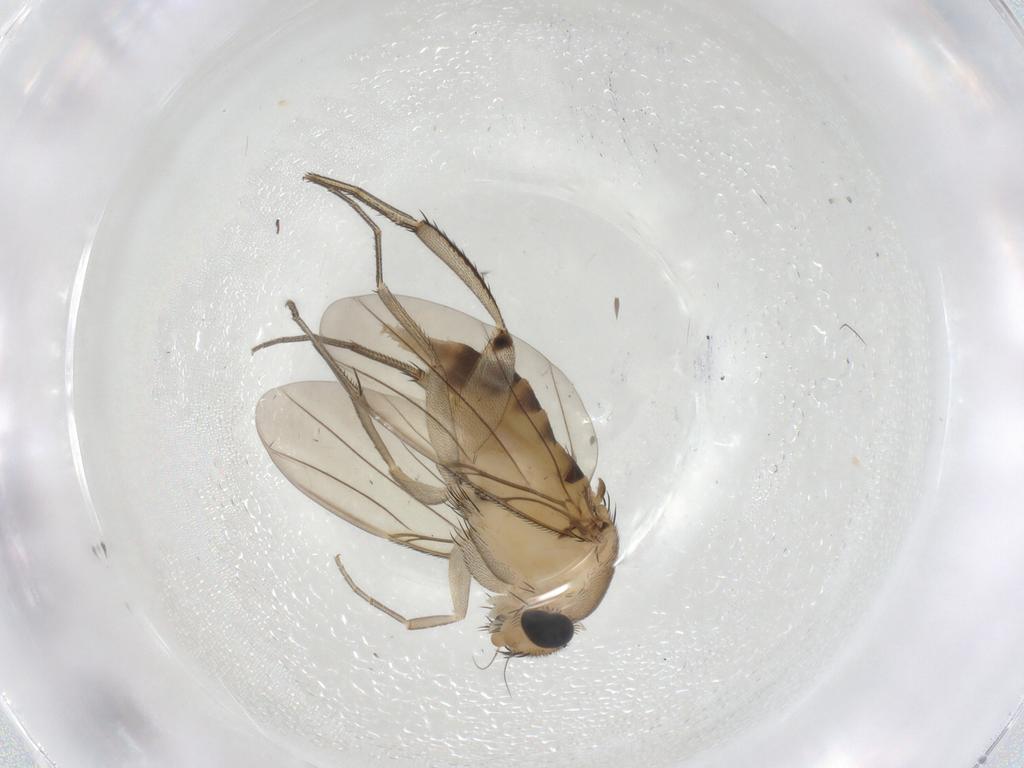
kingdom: Animalia
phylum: Arthropoda
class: Insecta
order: Diptera
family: Phoridae
